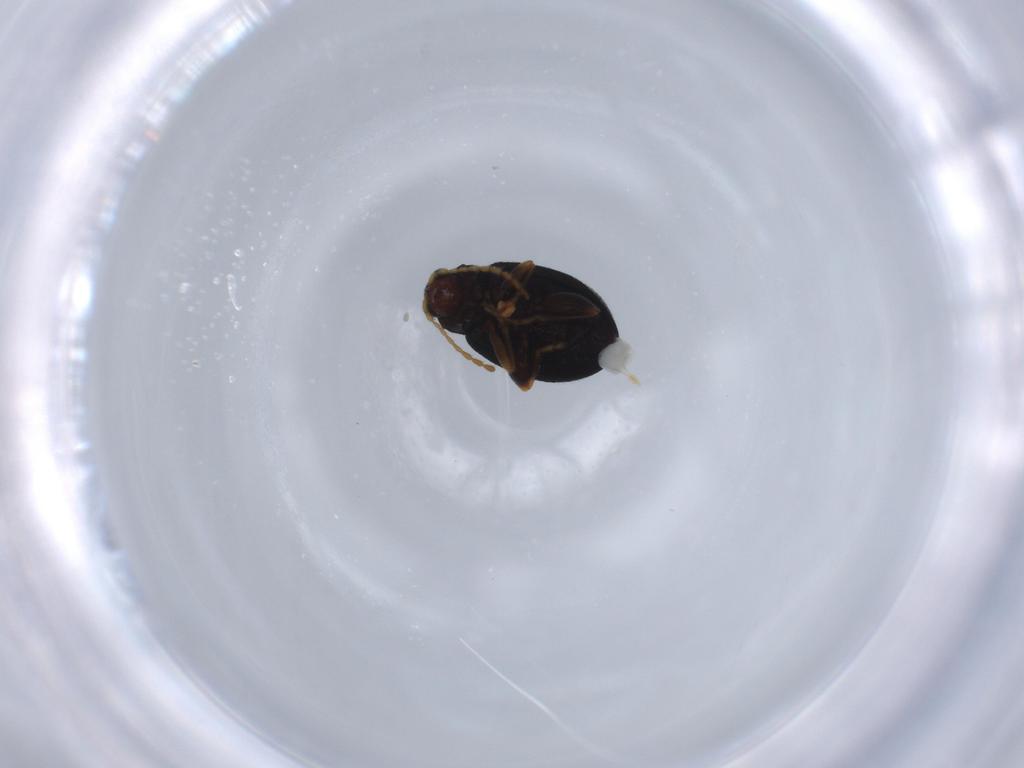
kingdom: Animalia
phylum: Arthropoda
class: Insecta
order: Coleoptera
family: Chrysomelidae
